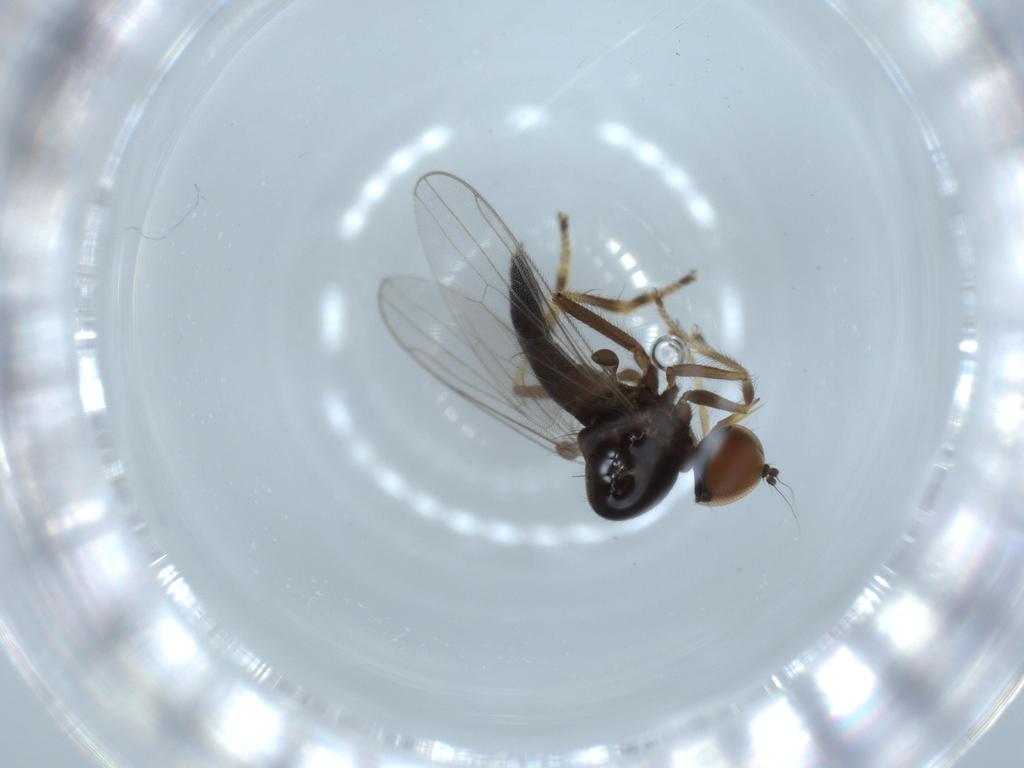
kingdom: Animalia
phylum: Arthropoda
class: Insecta
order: Diptera
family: Hybotidae
